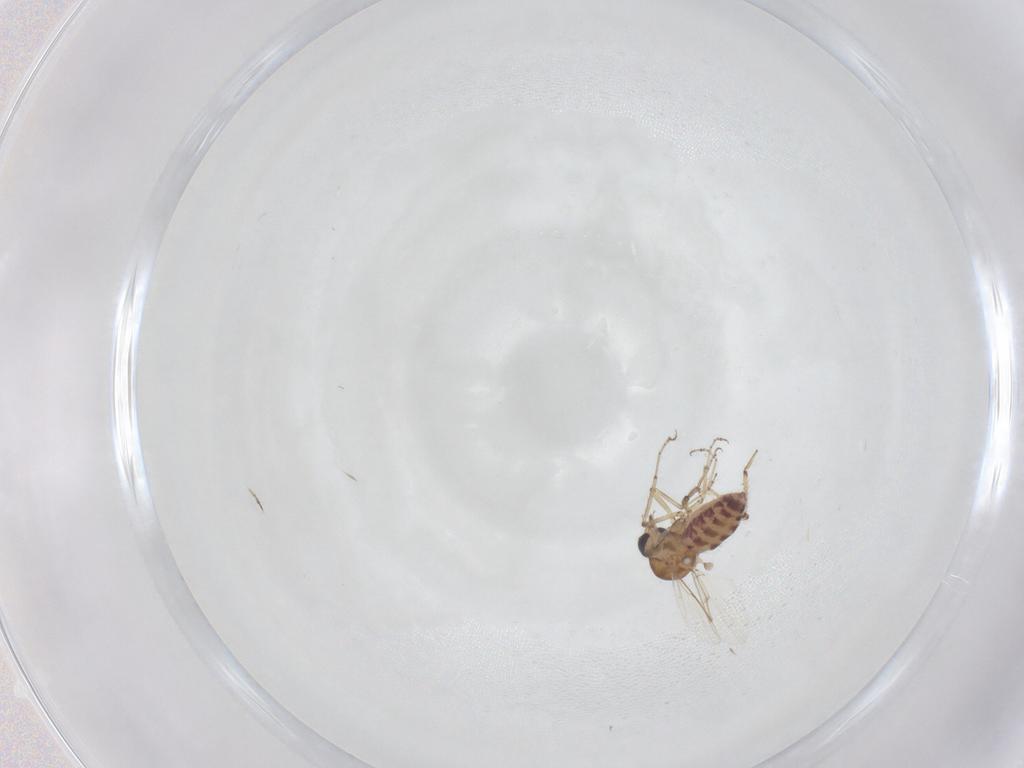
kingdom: Animalia
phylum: Arthropoda
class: Insecta
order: Diptera
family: Ceratopogonidae
